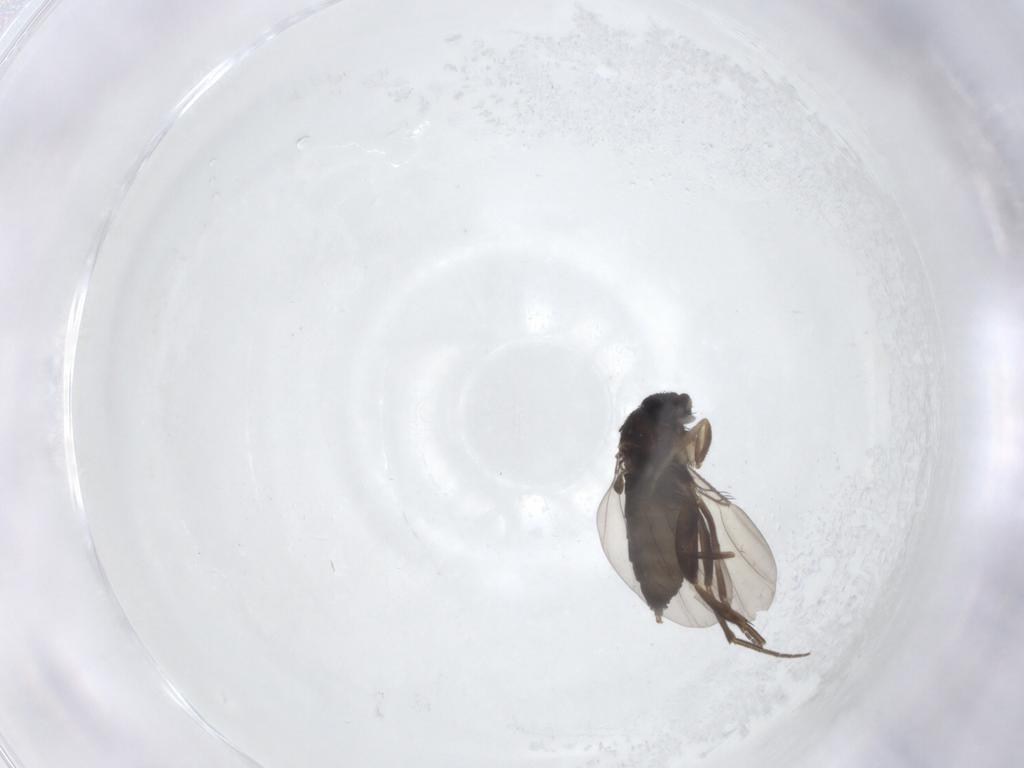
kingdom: Animalia
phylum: Arthropoda
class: Insecta
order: Diptera
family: Phoridae
